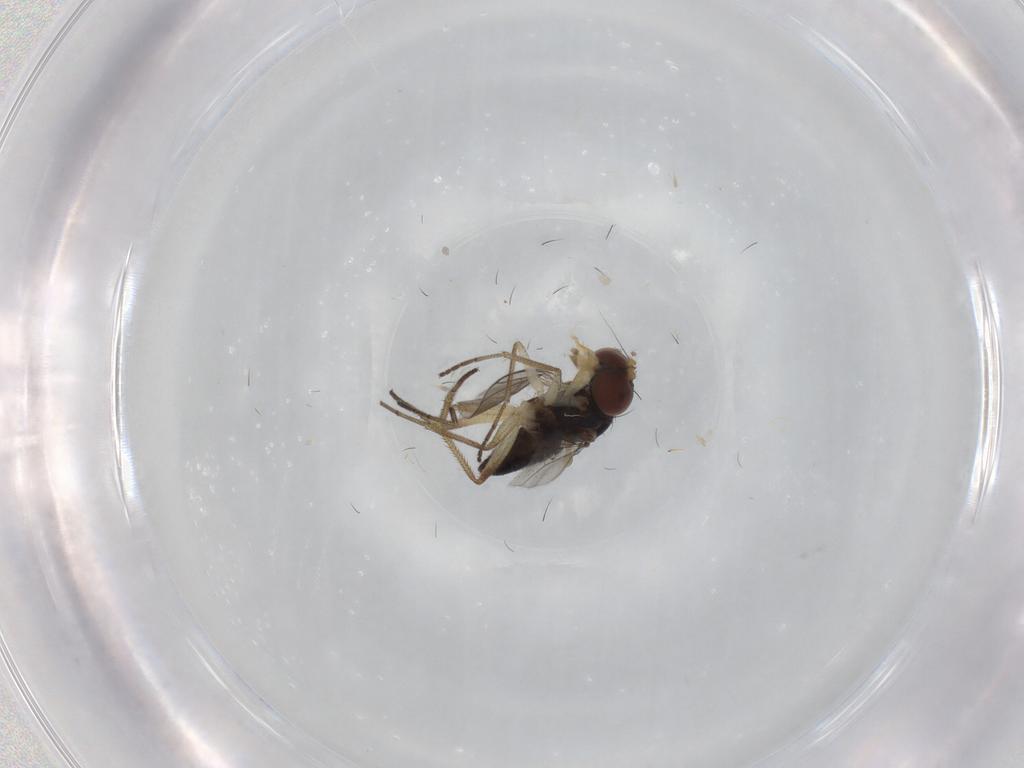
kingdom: Animalia
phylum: Arthropoda
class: Insecta
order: Diptera
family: Dolichopodidae
